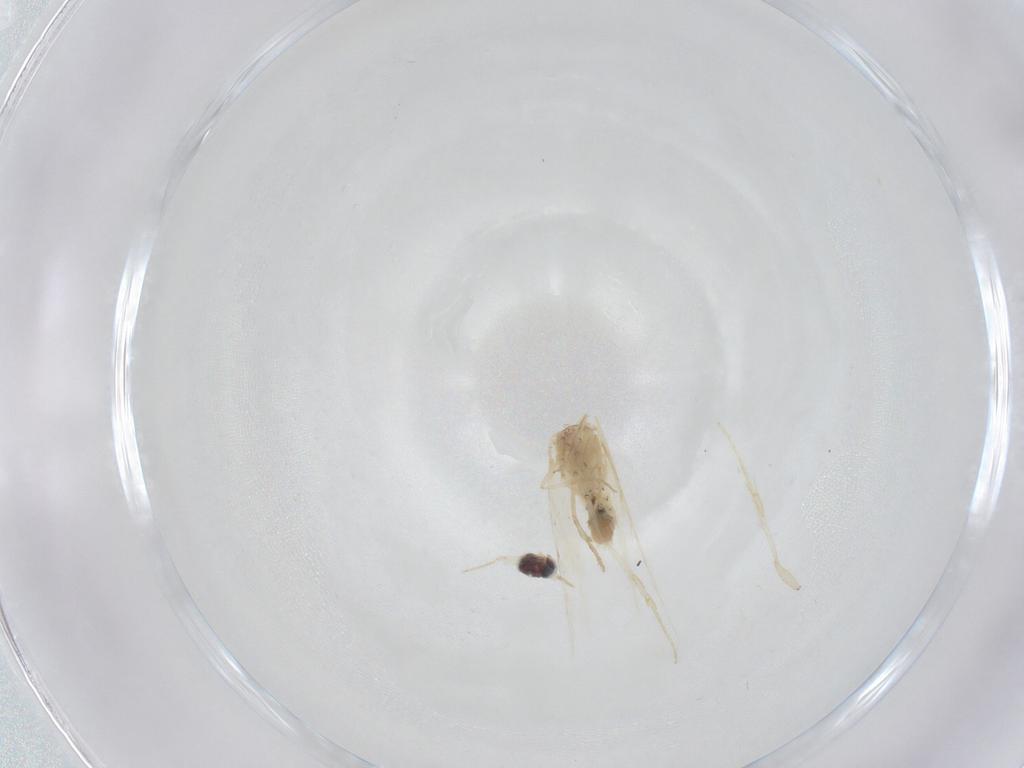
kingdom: Animalia
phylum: Arthropoda
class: Insecta
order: Lepidoptera
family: Nepticulidae
